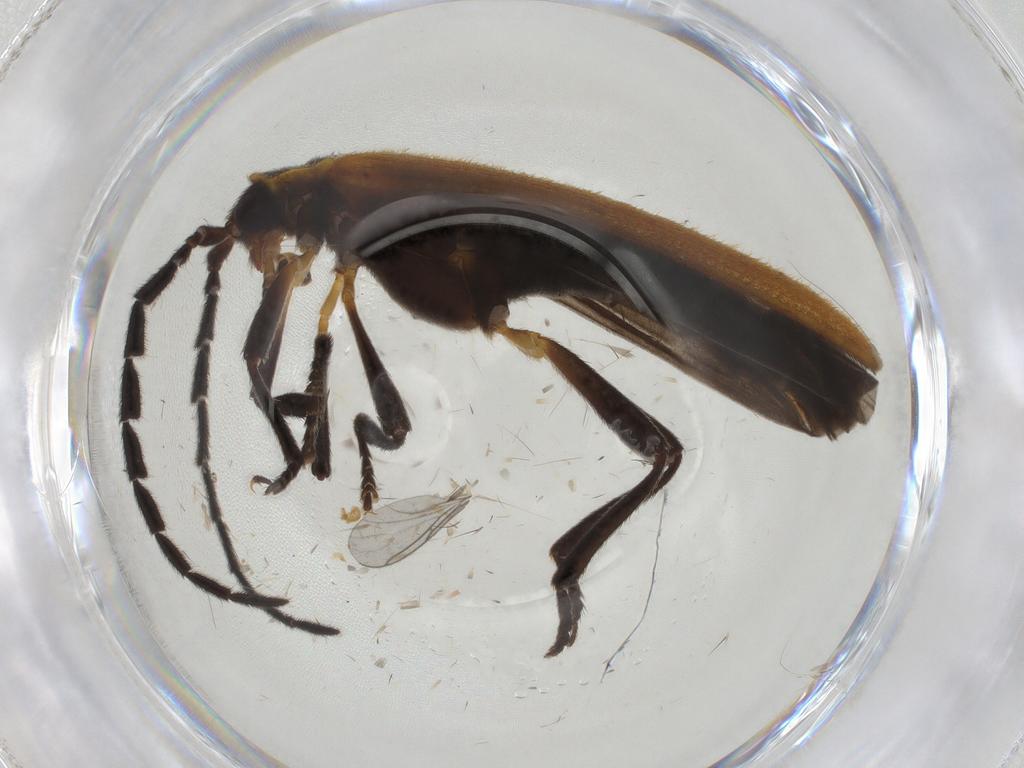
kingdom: Animalia
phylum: Arthropoda
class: Insecta
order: Coleoptera
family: Lycidae
